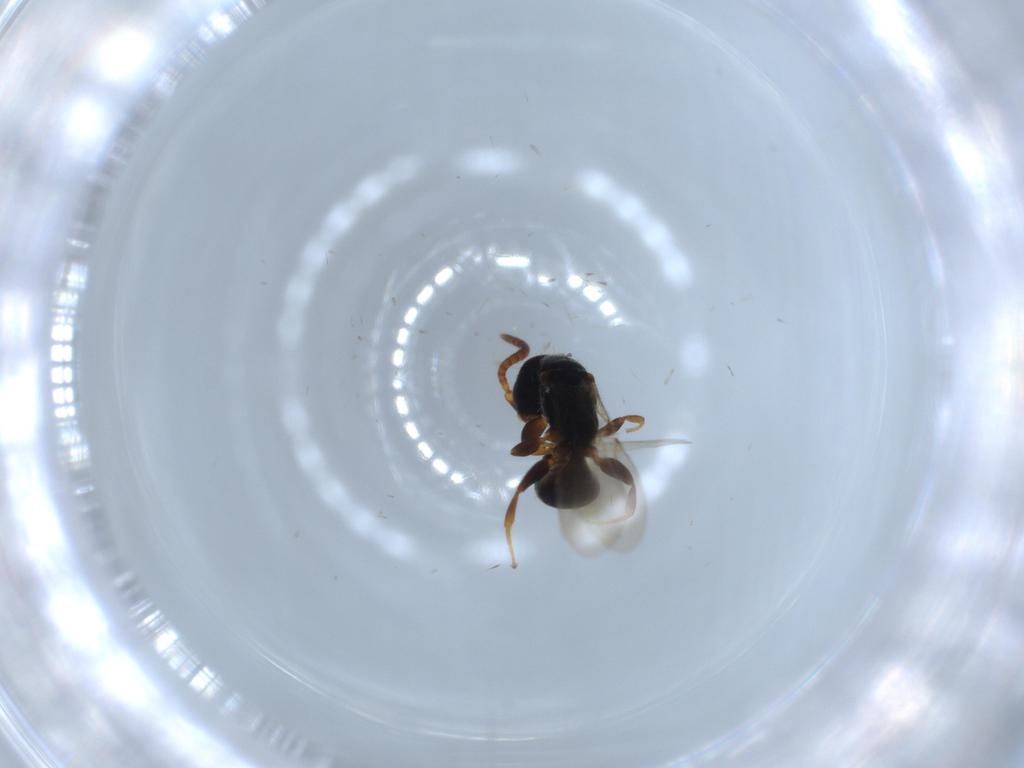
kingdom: Animalia
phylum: Arthropoda
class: Insecta
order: Hymenoptera
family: Bethylidae
